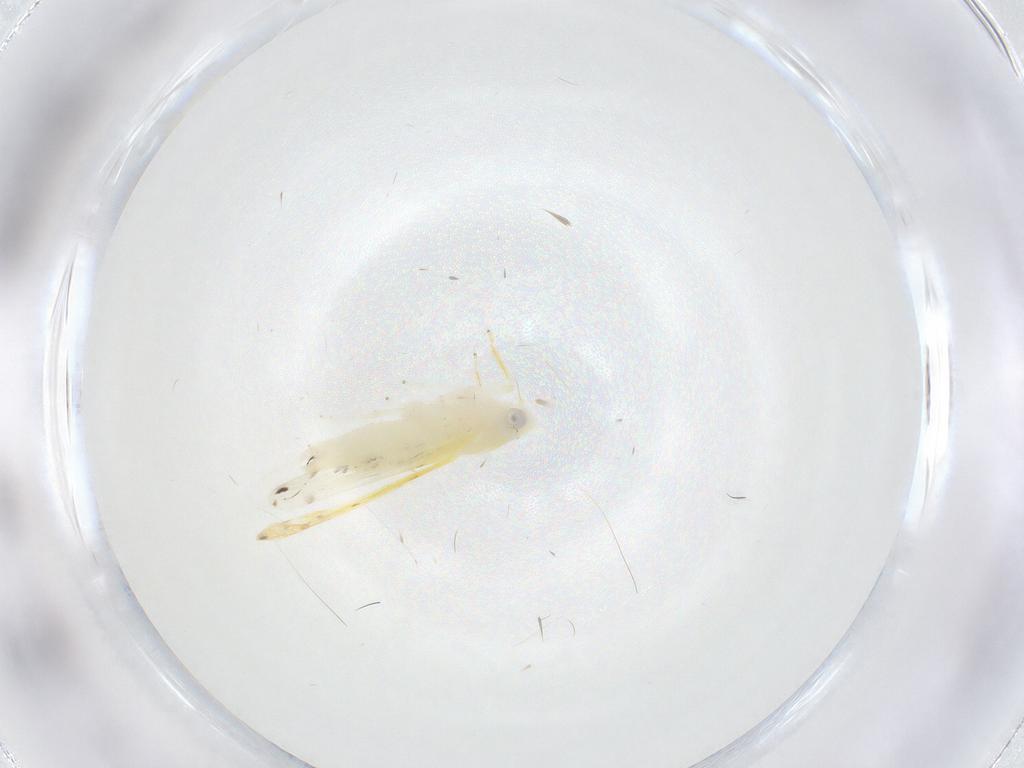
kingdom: Animalia
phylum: Arthropoda
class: Insecta
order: Hemiptera
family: Cicadellidae
